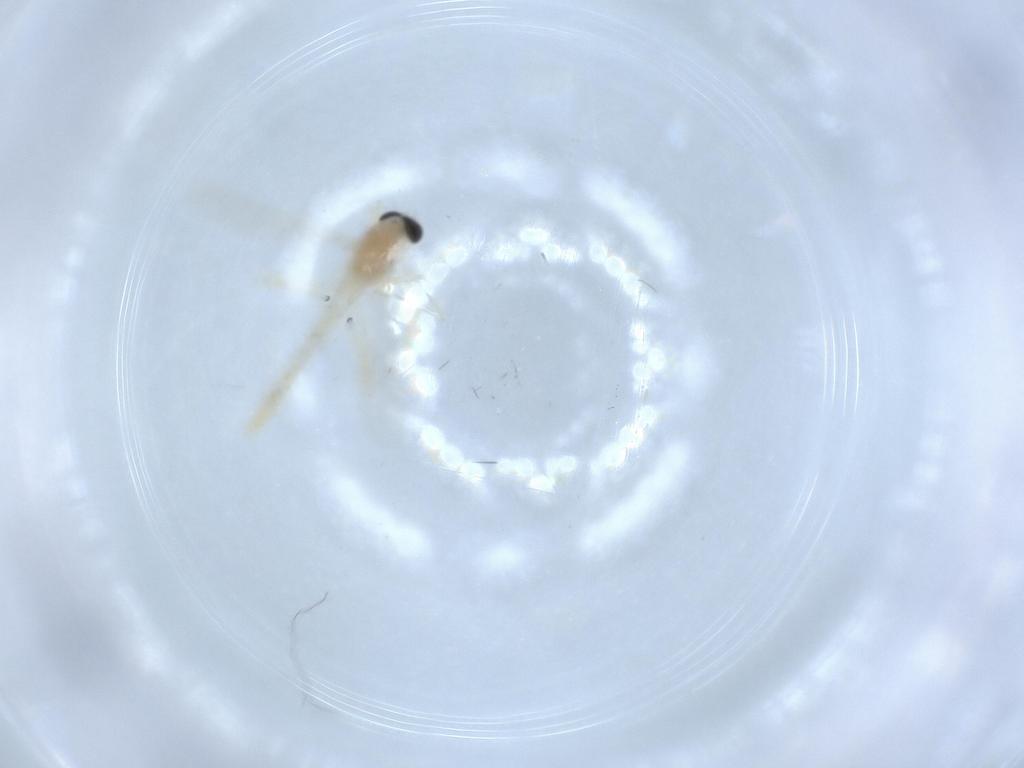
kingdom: Animalia
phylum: Arthropoda
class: Insecta
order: Diptera
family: Chironomidae
